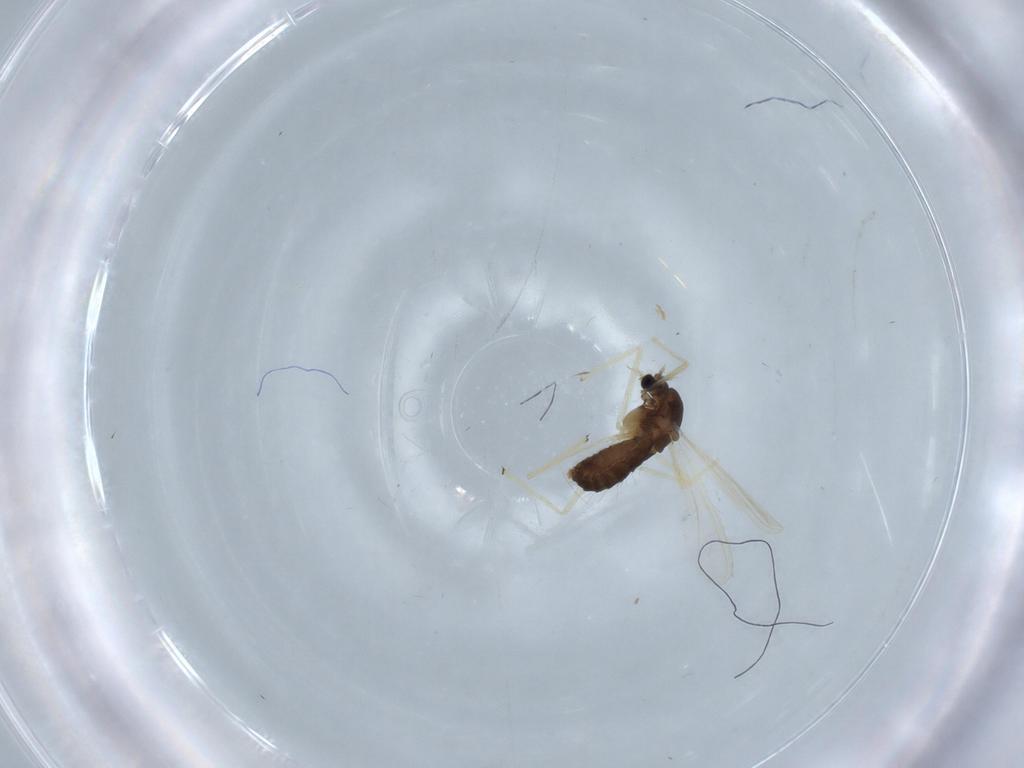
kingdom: Animalia
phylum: Arthropoda
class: Insecta
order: Diptera
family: Chironomidae
